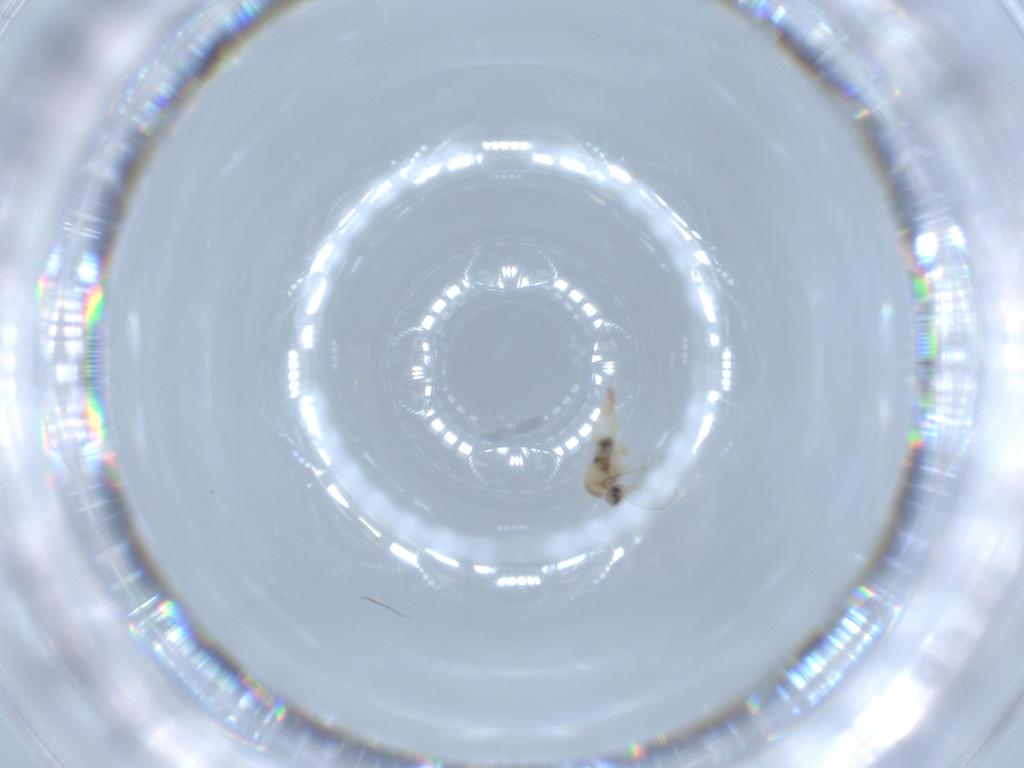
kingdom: Animalia
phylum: Arthropoda
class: Insecta
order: Diptera
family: Cecidomyiidae
